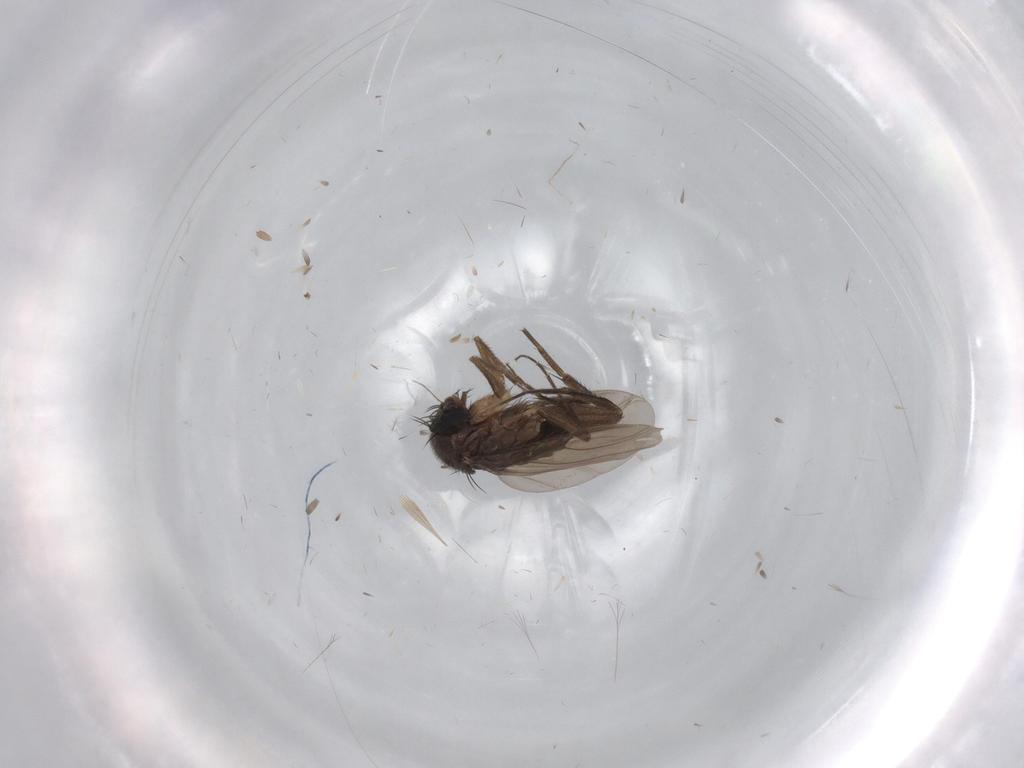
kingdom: Animalia
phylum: Arthropoda
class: Insecta
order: Diptera
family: Phoridae
